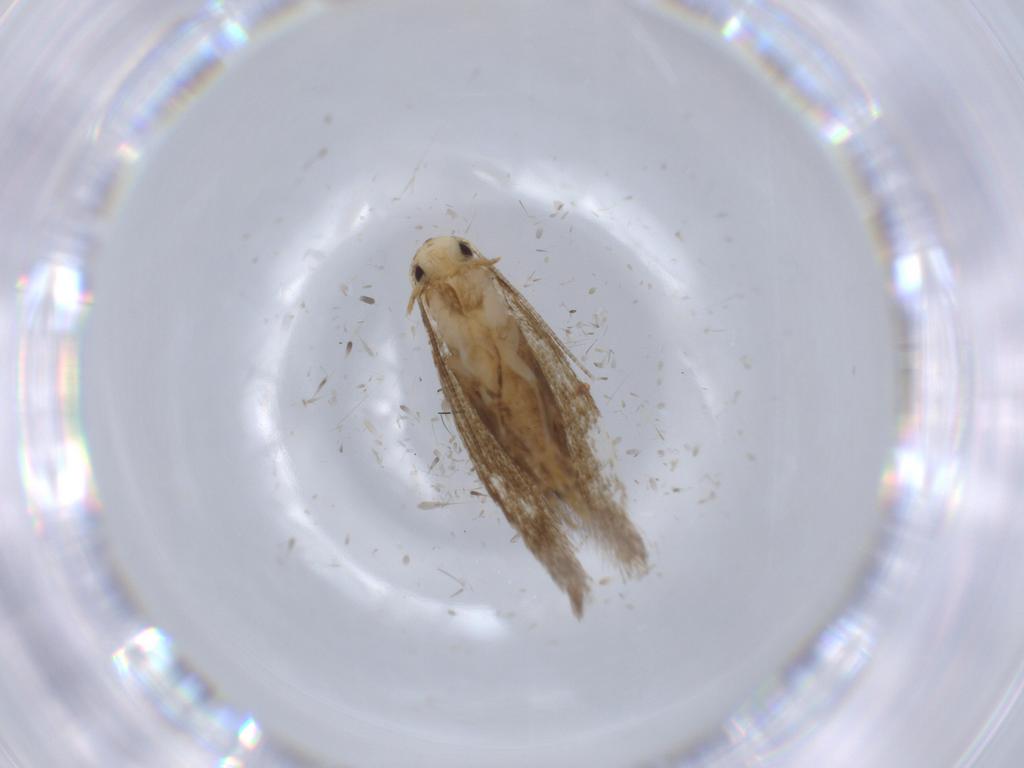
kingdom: Animalia
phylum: Arthropoda
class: Insecta
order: Lepidoptera
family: Tineidae
